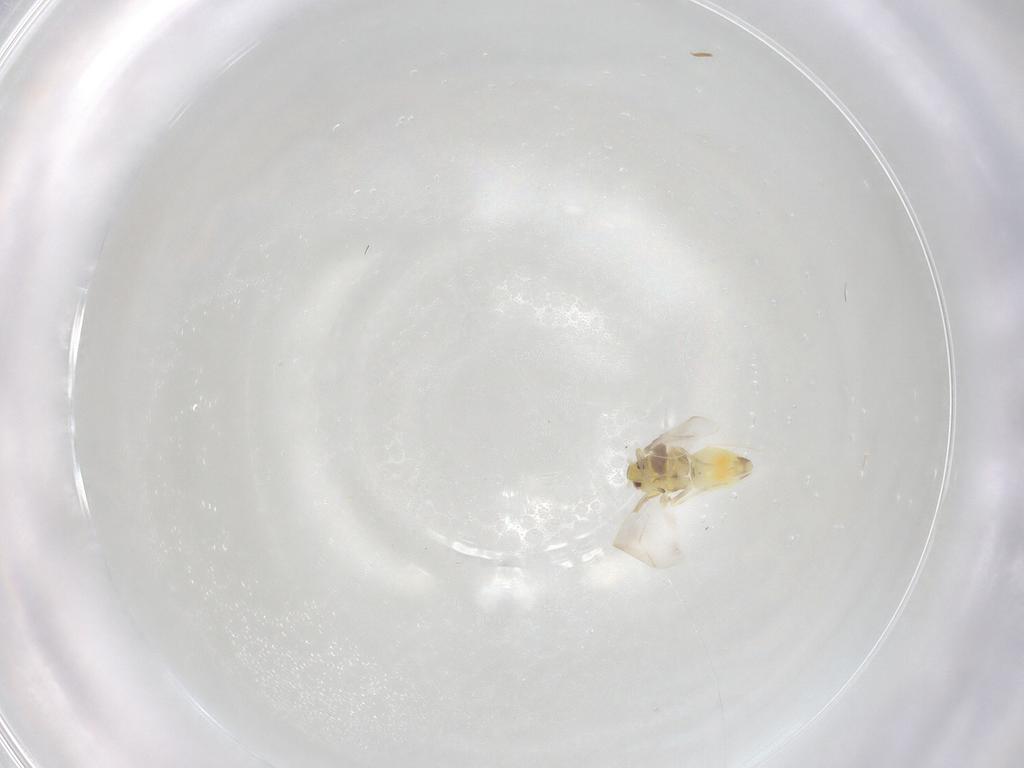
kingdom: Animalia
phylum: Arthropoda
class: Insecta
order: Hemiptera
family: Aleyrodidae
